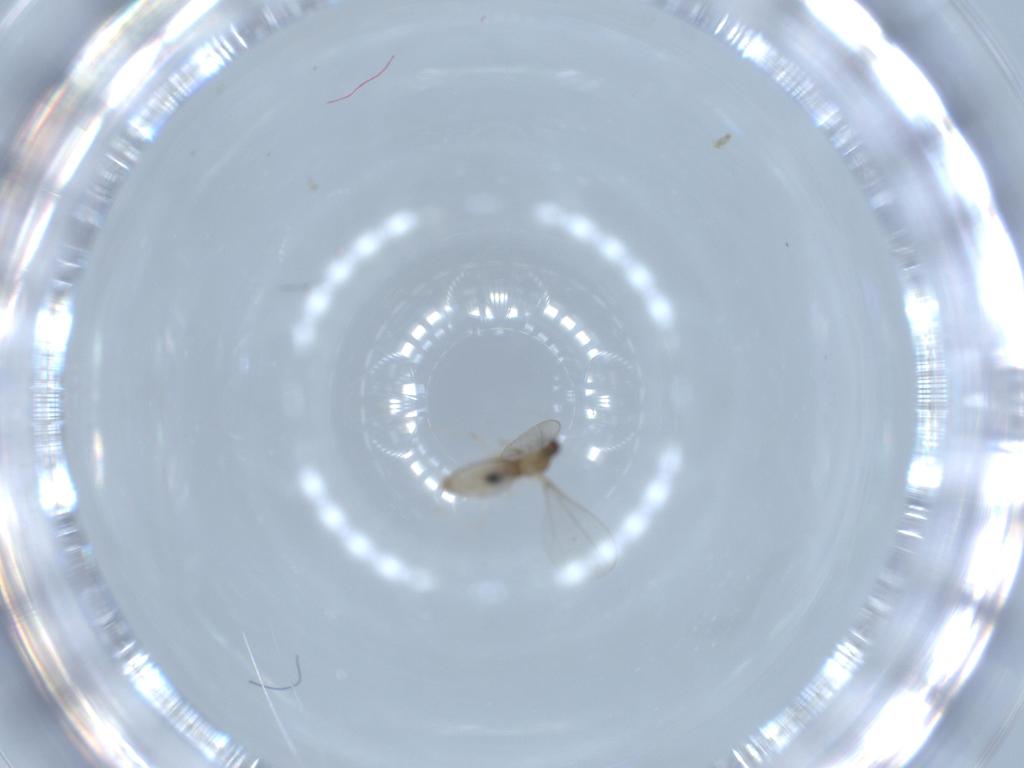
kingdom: Animalia
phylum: Arthropoda
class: Insecta
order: Diptera
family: Cecidomyiidae
